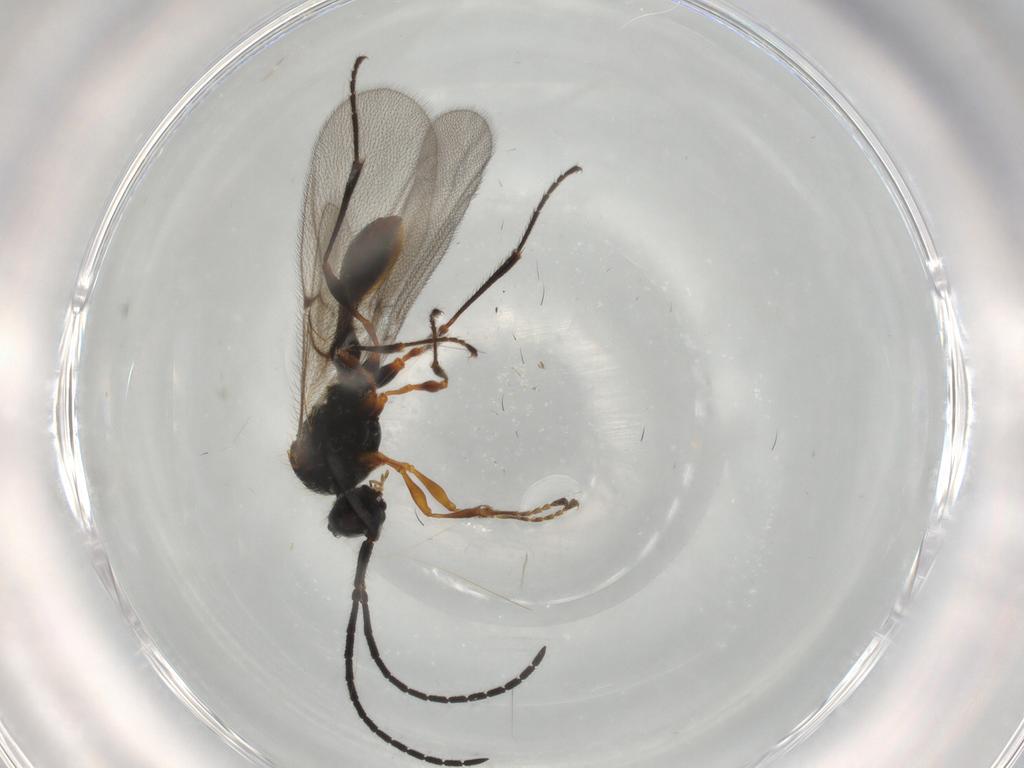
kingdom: Animalia
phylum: Arthropoda
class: Insecta
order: Hymenoptera
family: Diapriidae
